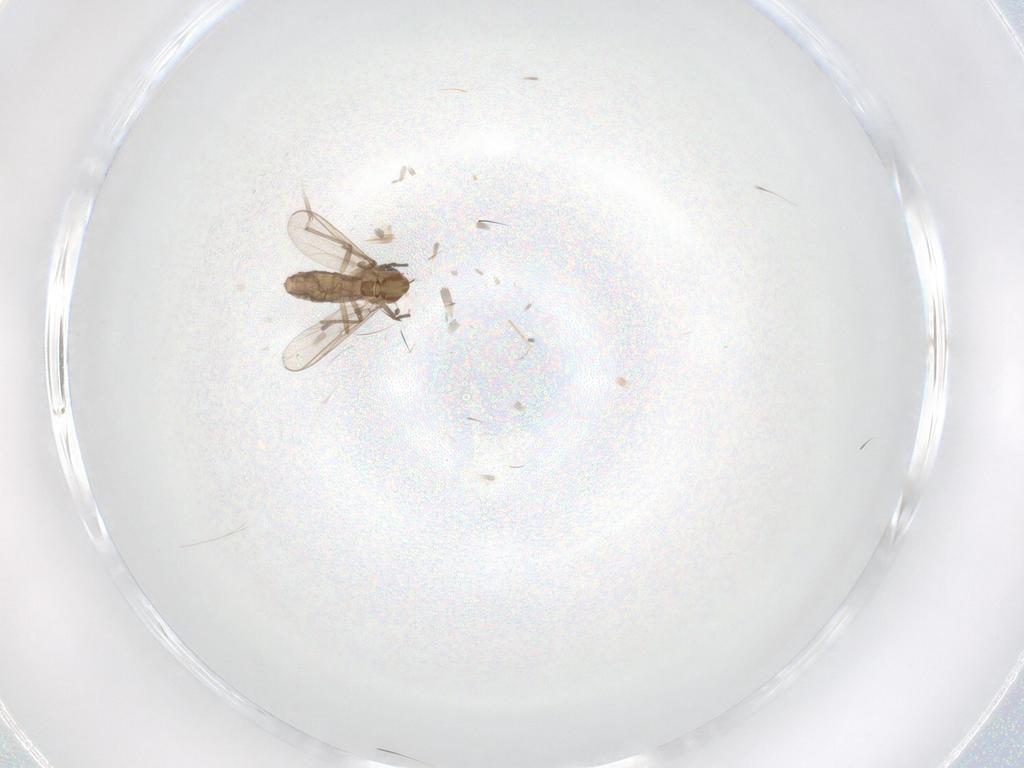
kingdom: Animalia
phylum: Arthropoda
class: Insecta
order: Diptera
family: Chironomidae
